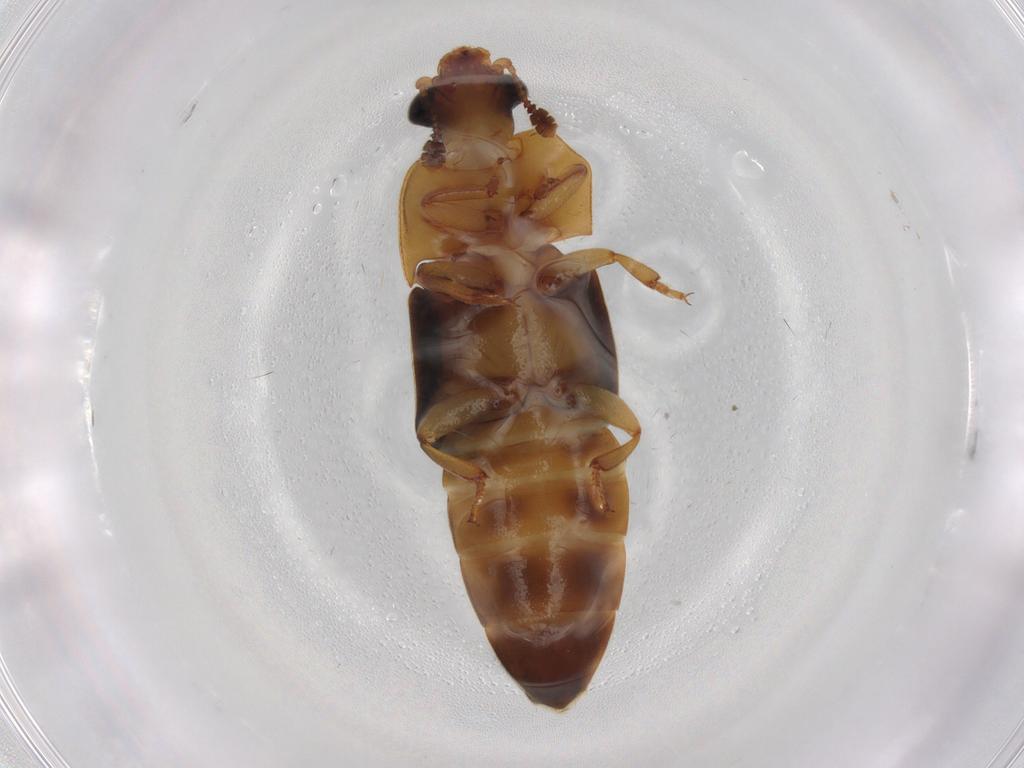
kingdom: Animalia
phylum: Arthropoda
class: Insecta
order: Coleoptera
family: Nitidulidae
